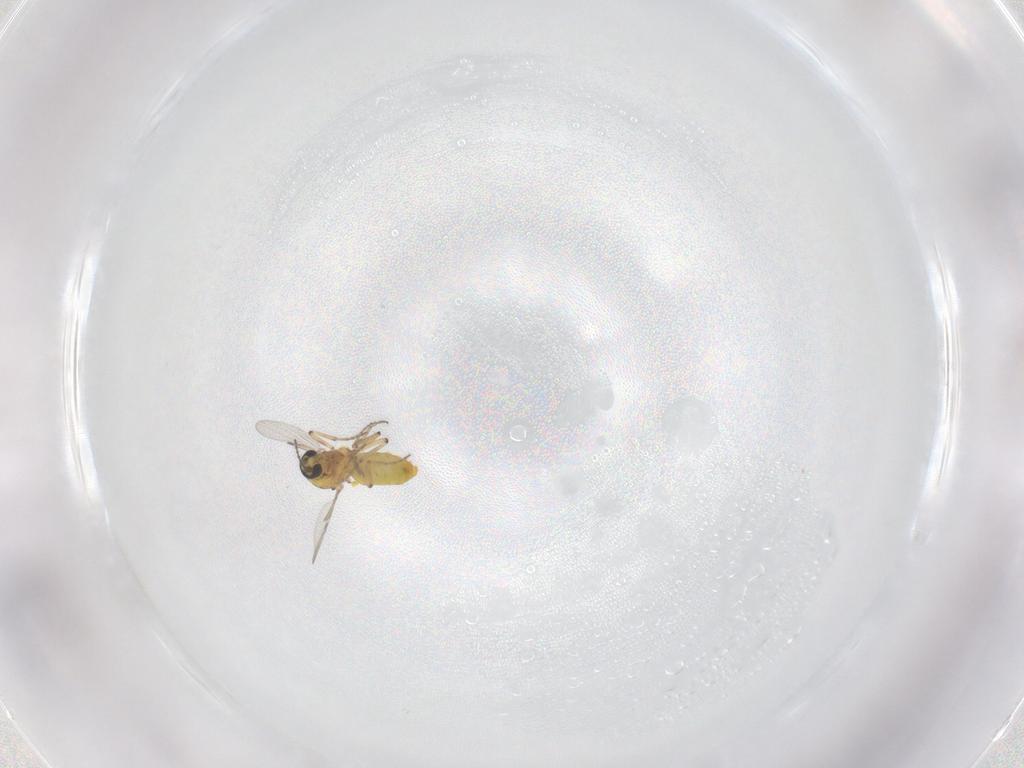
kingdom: Animalia
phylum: Arthropoda
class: Insecta
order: Diptera
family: Ceratopogonidae
